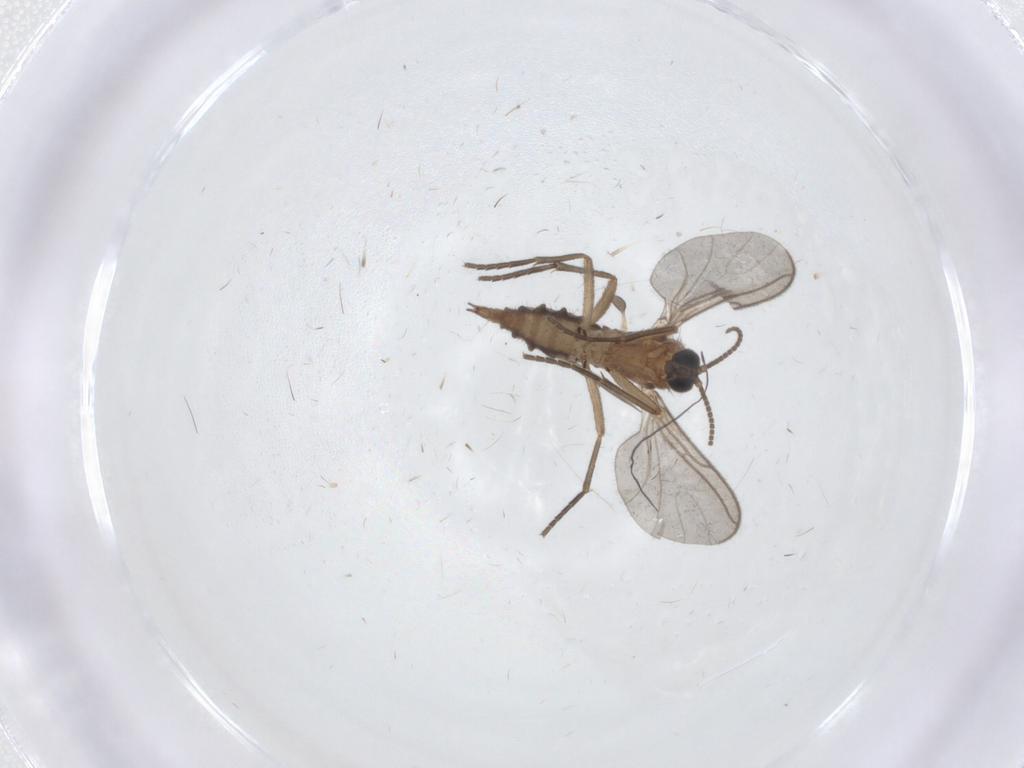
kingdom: Animalia
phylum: Arthropoda
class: Insecta
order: Diptera
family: Sciaridae
